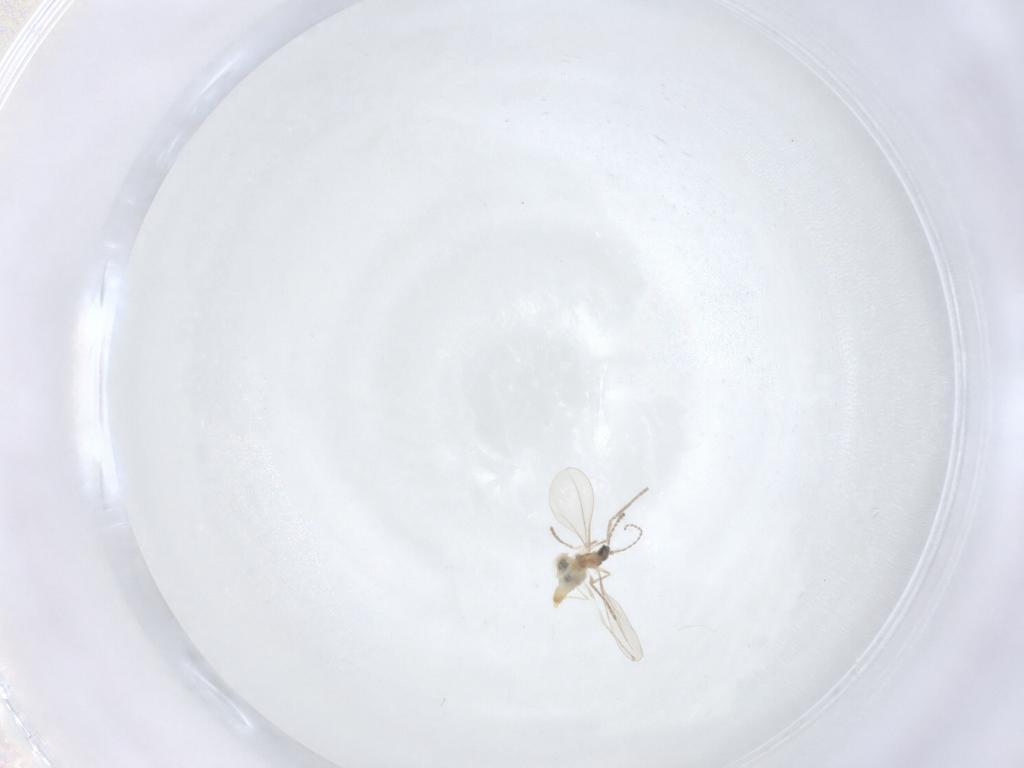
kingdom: Animalia
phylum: Arthropoda
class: Insecta
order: Diptera
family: Cecidomyiidae
